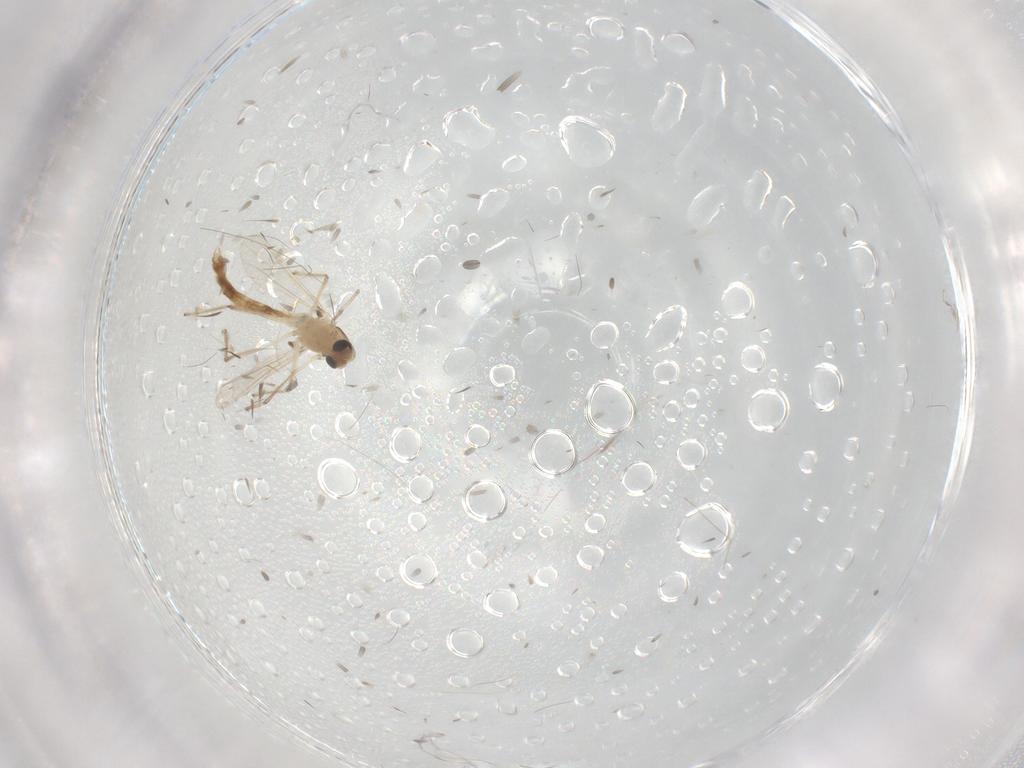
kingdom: Animalia
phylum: Arthropoda
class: Insecta
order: Diptera
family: Chironomidae
